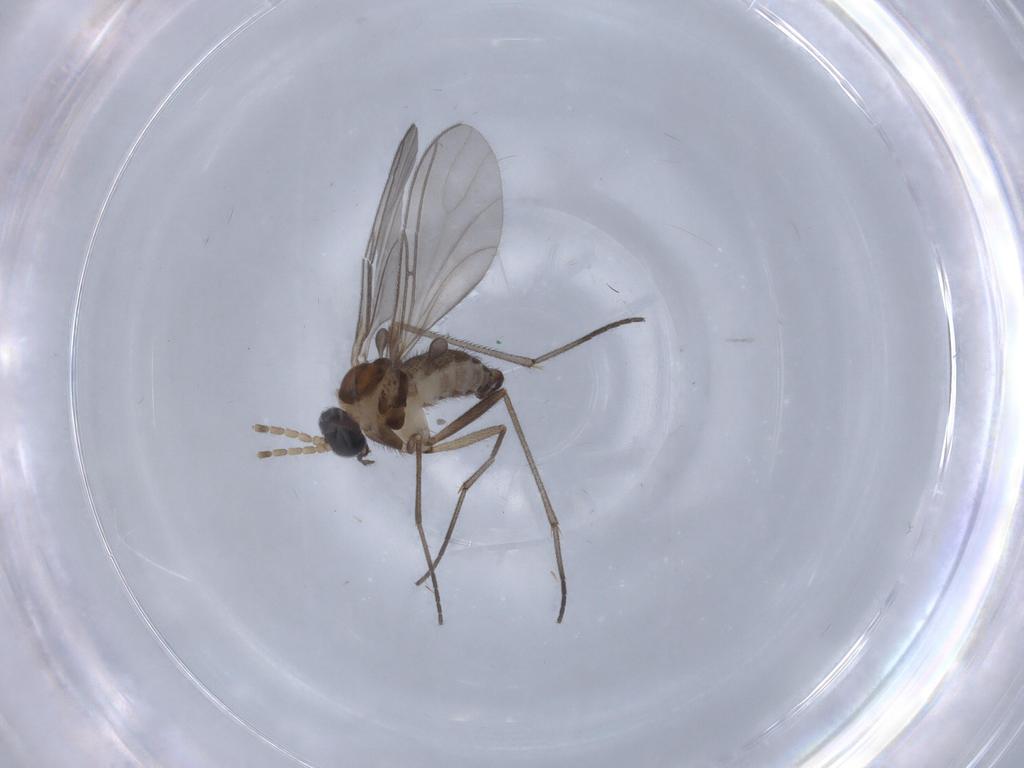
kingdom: Animalia
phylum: Arthropoda
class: Insecta
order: Diptera
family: Sciaridae
